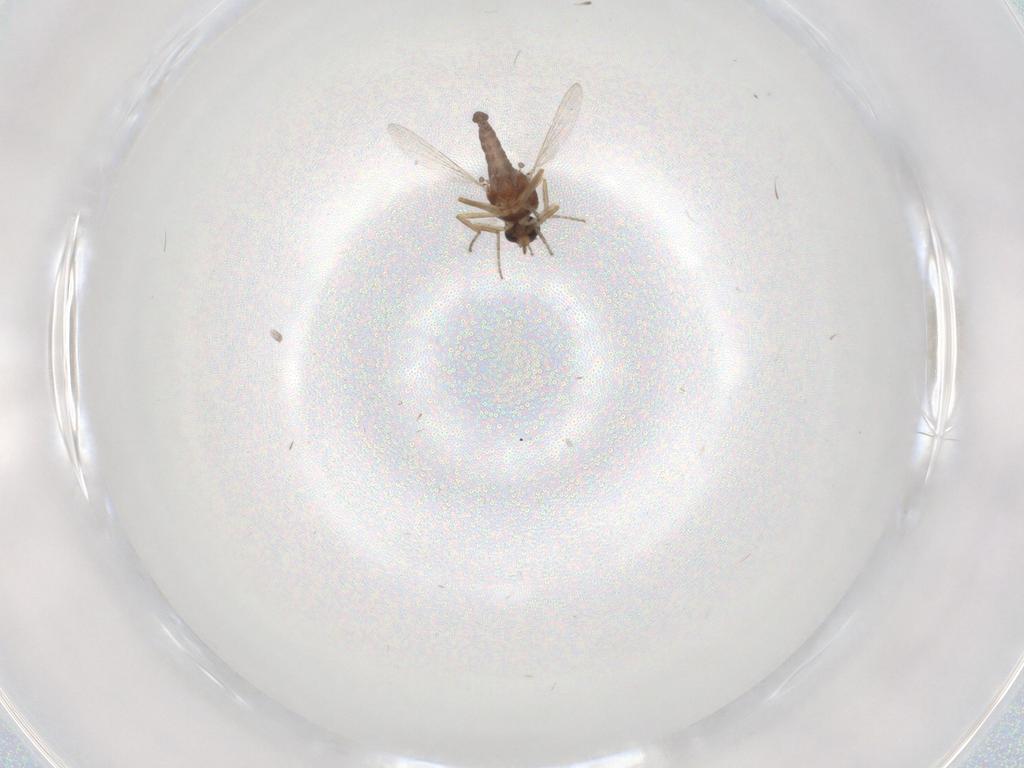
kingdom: Animalia
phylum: Arthropoda
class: Insecta
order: Diptera
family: Ceratopogonidae
